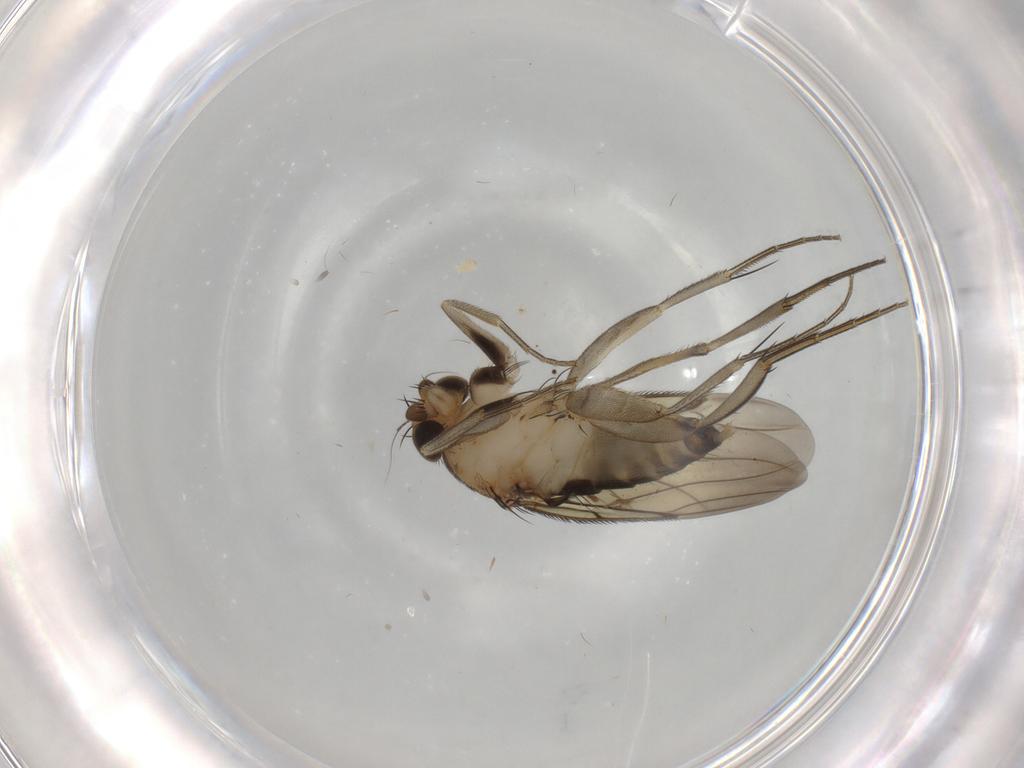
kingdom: Animalia
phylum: Arthropoda
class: Insecta
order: Diptera
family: Phoridae
